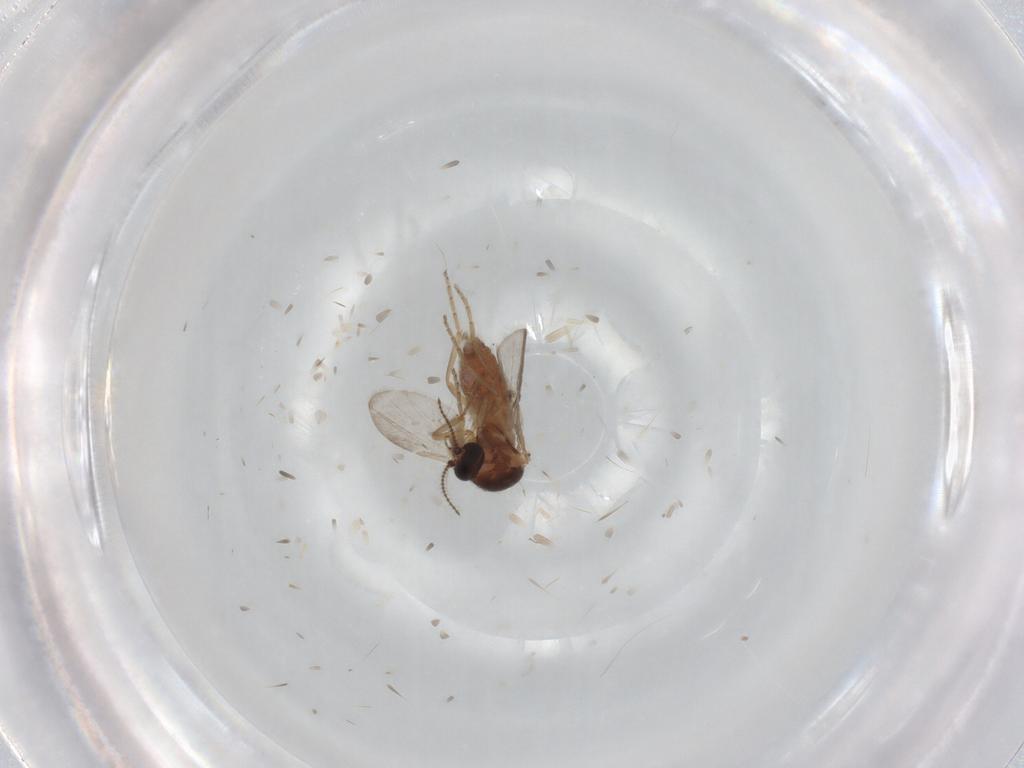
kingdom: Animalia
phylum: Arthropoda
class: Insecta
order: Diptera
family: Ceratopogonidae
